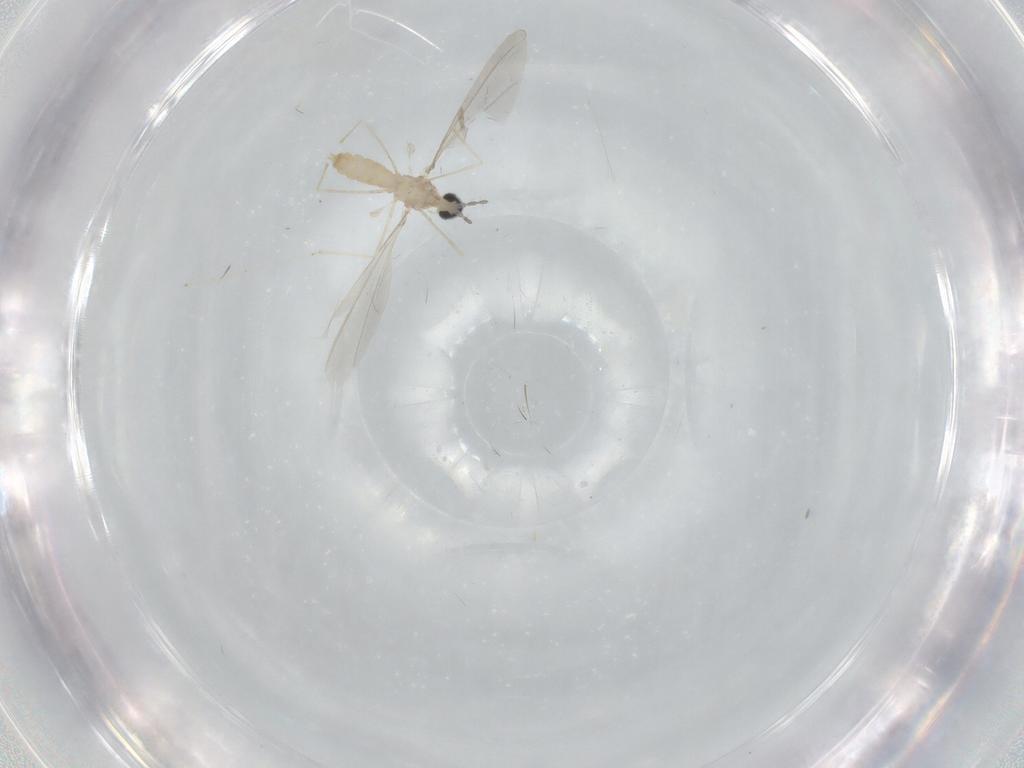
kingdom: Animalia
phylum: Arthropoda
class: Insecta
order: Diptera
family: Cecidomyiidae
